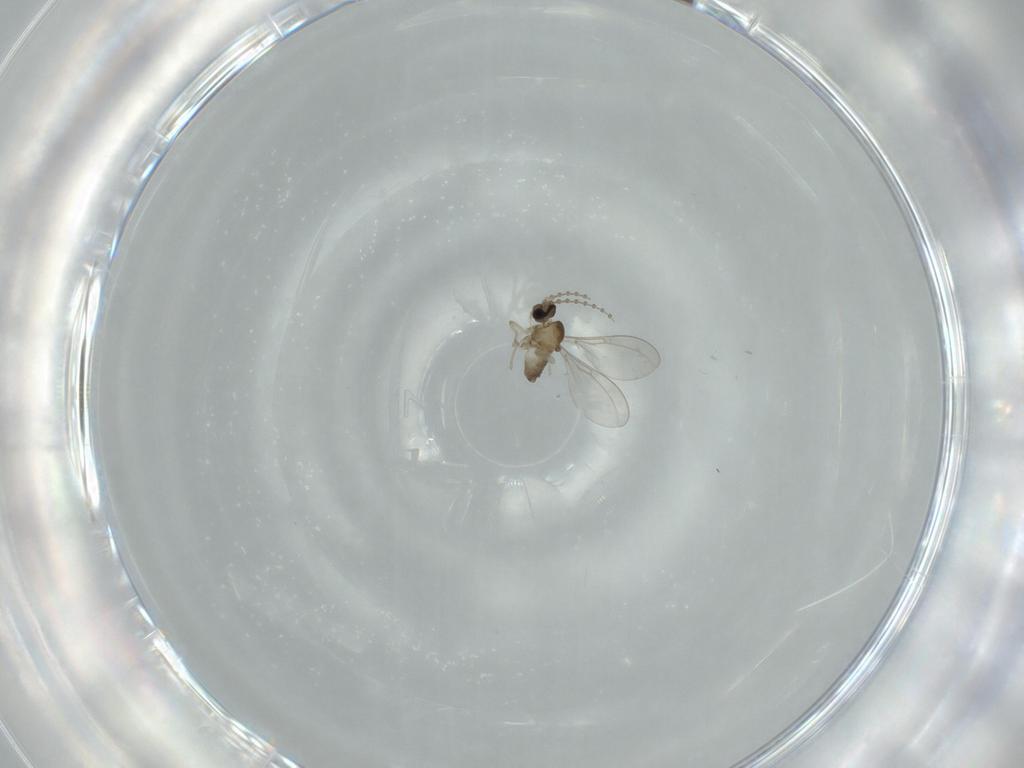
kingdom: Animalia
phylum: Arthropoda
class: Insecta
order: Diptera
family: Cecidomyiidae
